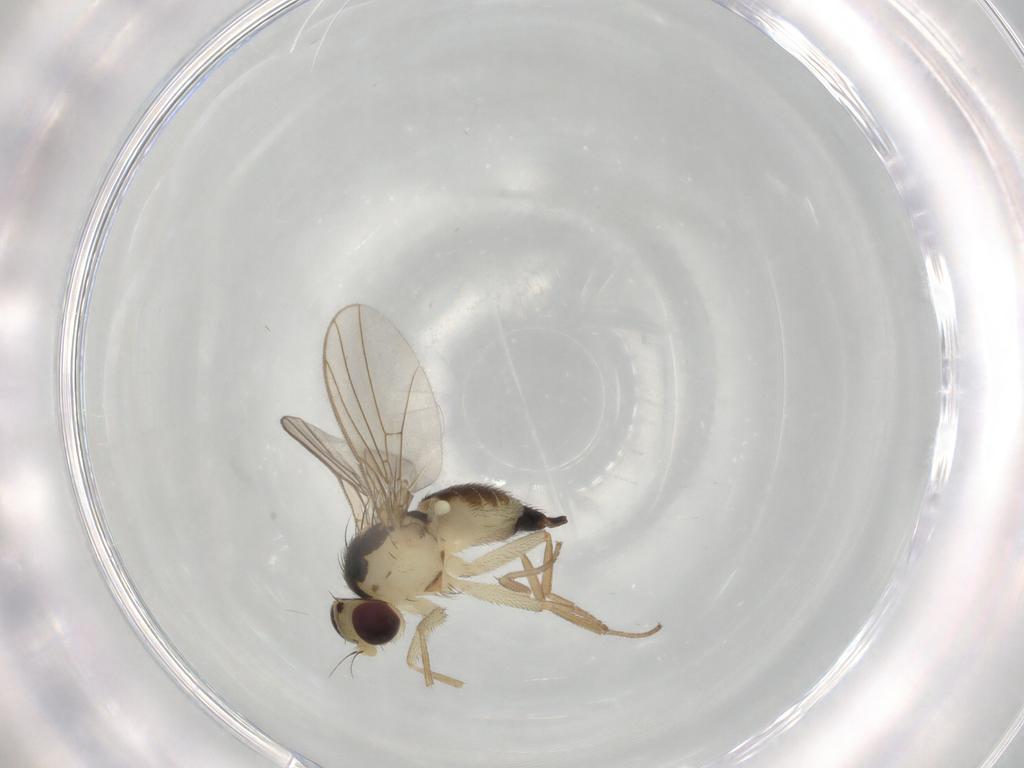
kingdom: Animalia
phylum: Arthropoda
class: Insecta
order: Diptera
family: Agromyzidae
